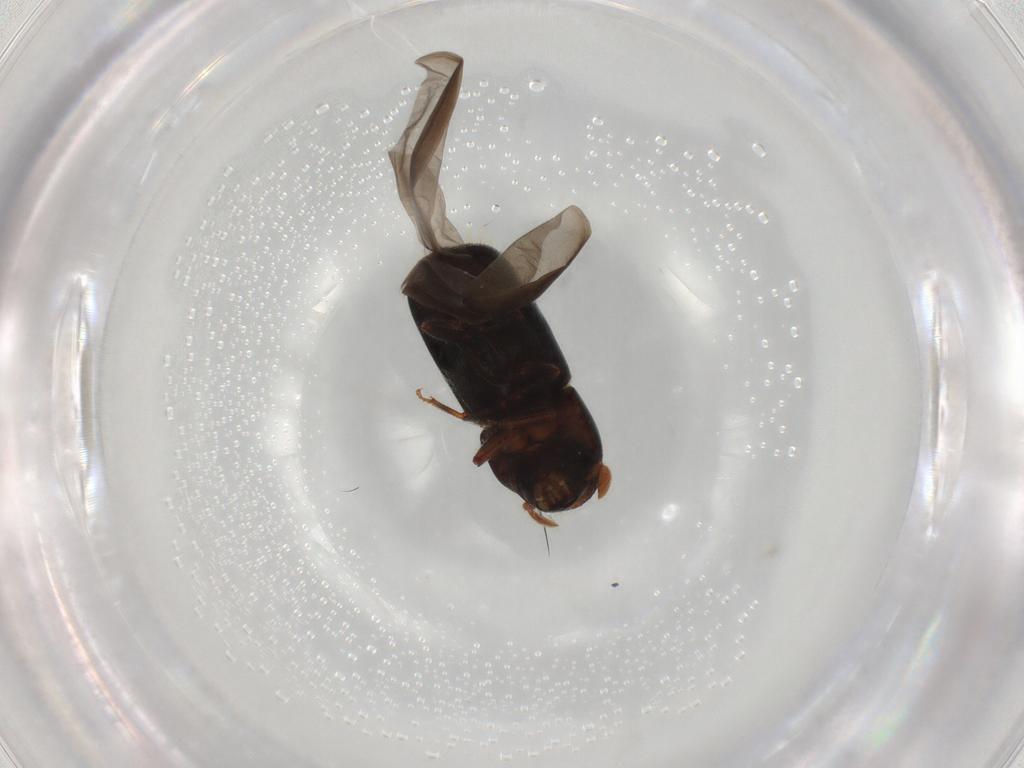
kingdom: Animalia
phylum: Arthropoda
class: Insecta
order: Coleoptera
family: Curculionidae
